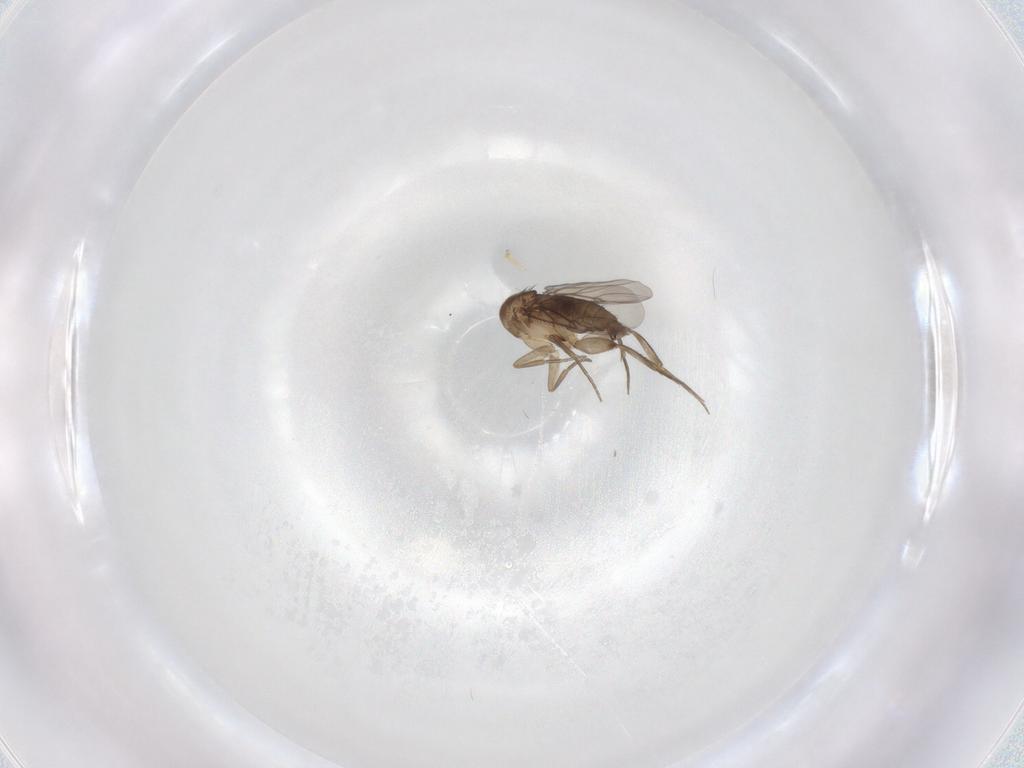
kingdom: Animalia
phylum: Arthropoda
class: Insecta
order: Diptera
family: Phoridae
